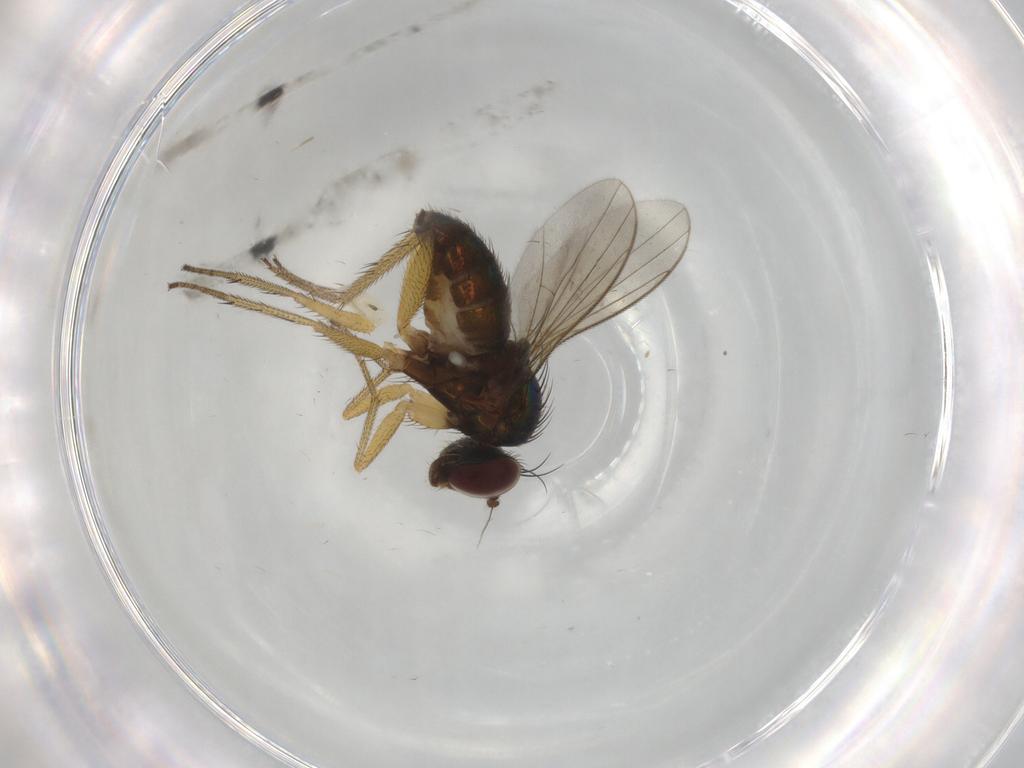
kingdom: Animalia
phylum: Arthropoda
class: Insecta
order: Diptera
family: Dolichopodidae
